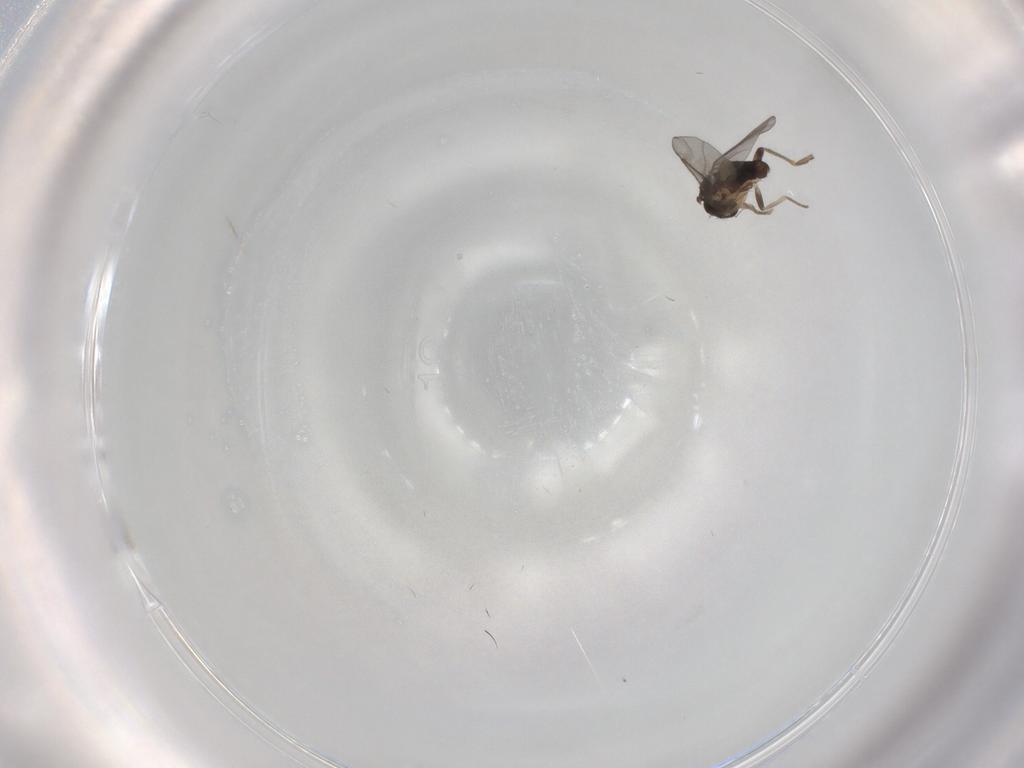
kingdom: Animalia
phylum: Arthropoda
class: Insecta
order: Diptera
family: Phoridae
